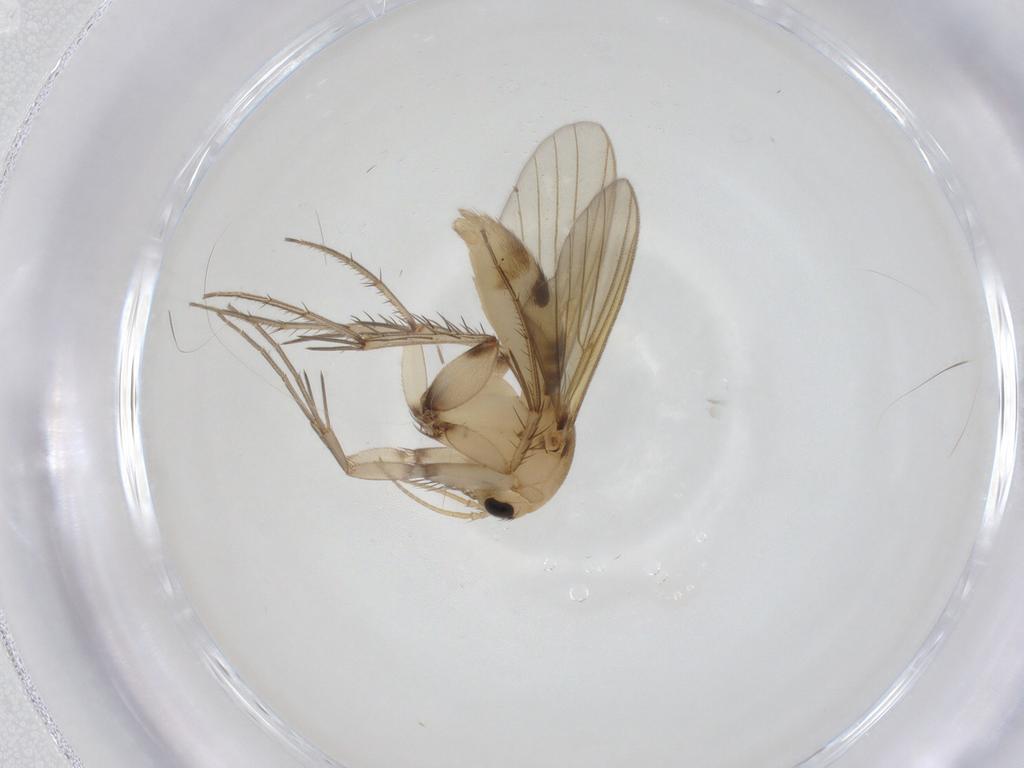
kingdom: Animalia
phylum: Arthropoda
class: Insecta
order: Diptera
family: Mycetophilidae
